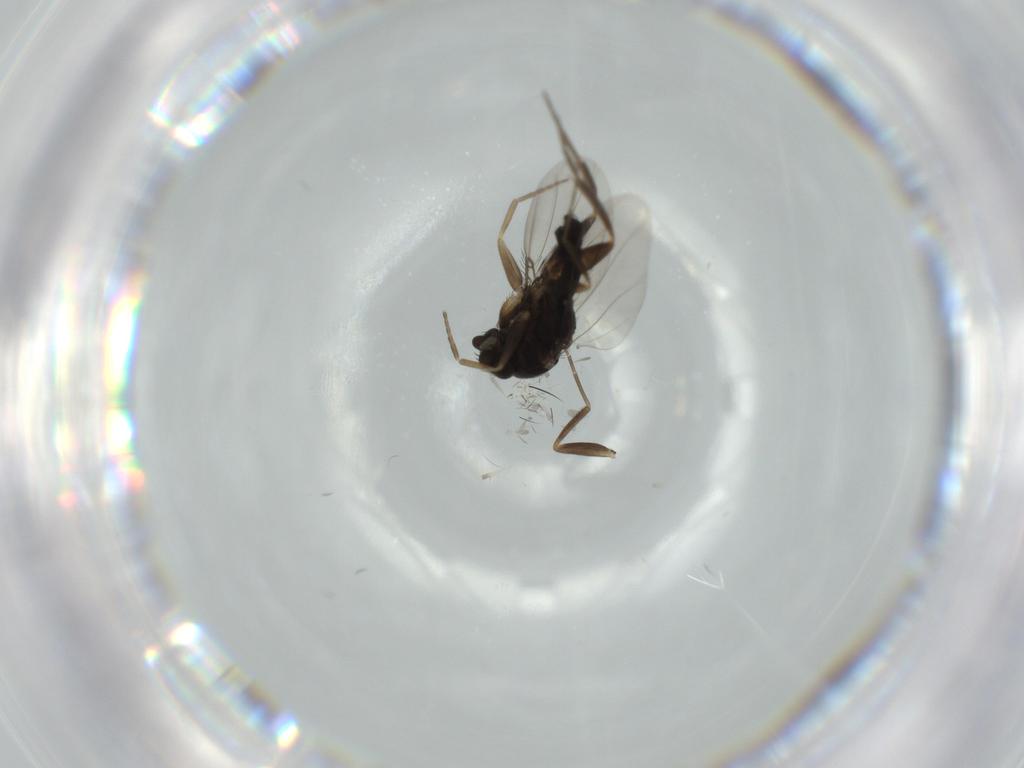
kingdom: Animalia
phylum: Arthropoda
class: Insecta
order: Diptera
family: Phoridae
